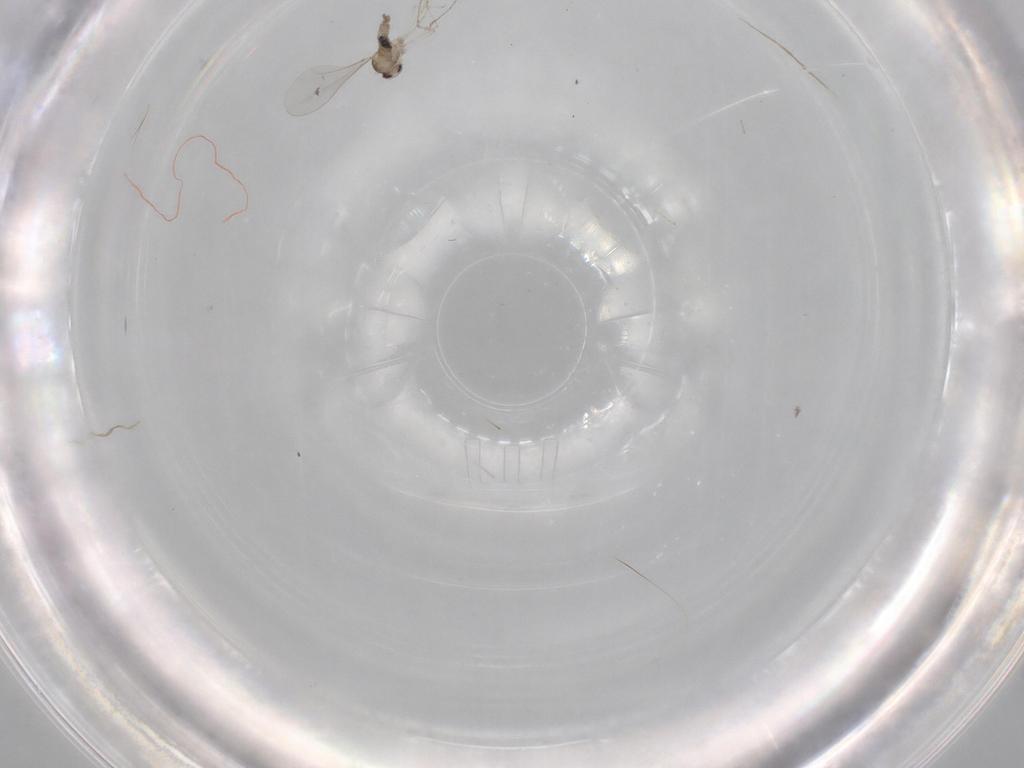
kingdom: Animalia
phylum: Arthropoda
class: Insecta
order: Diptera
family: Cecidomyiidae
